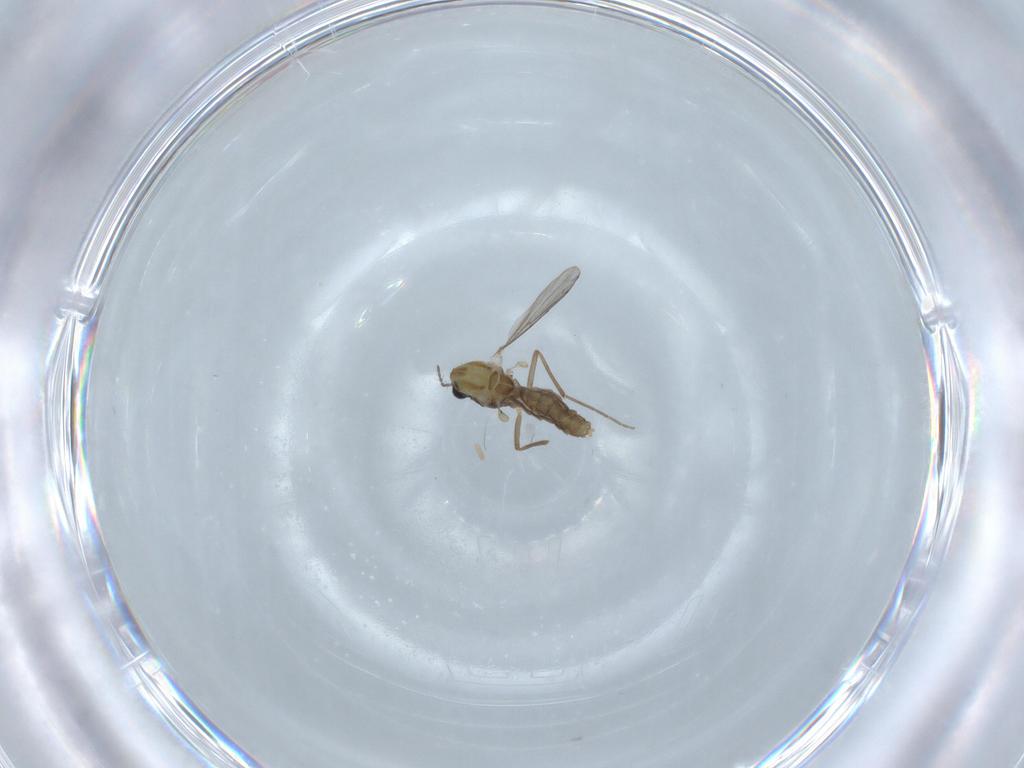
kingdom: Animalia
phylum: Arthropoda
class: Insecta
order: Diptera
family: Chironomidae
